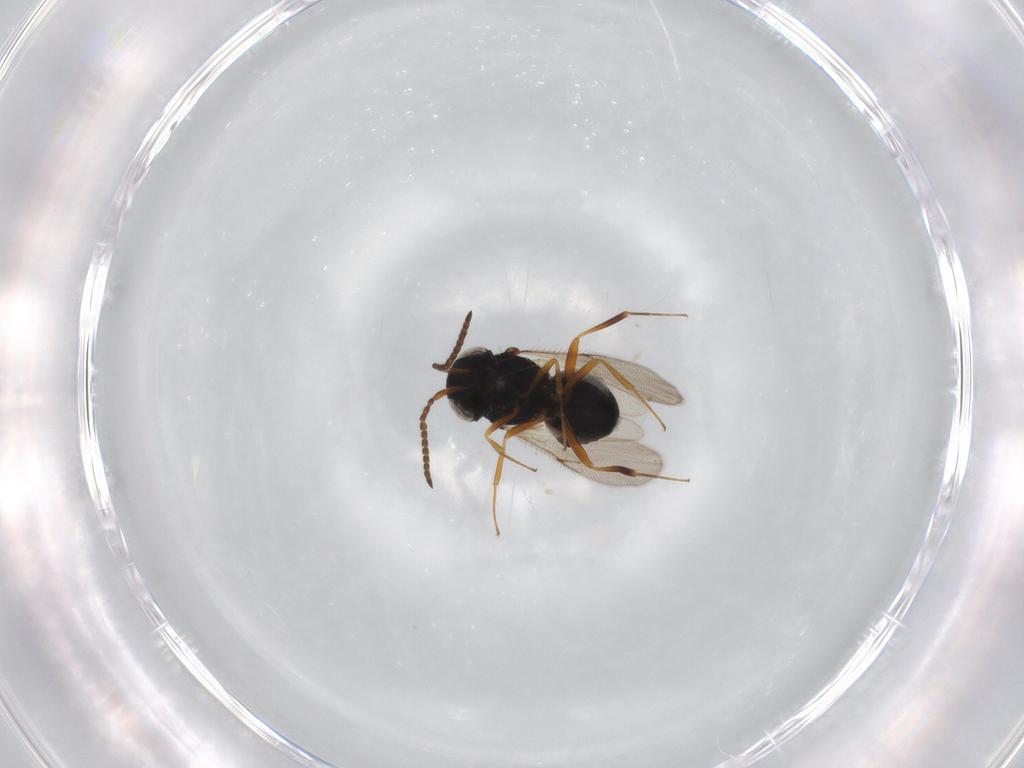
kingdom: Animalia
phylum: Arthropoda
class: Insecta
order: Hymenoptera
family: Scelionidae
